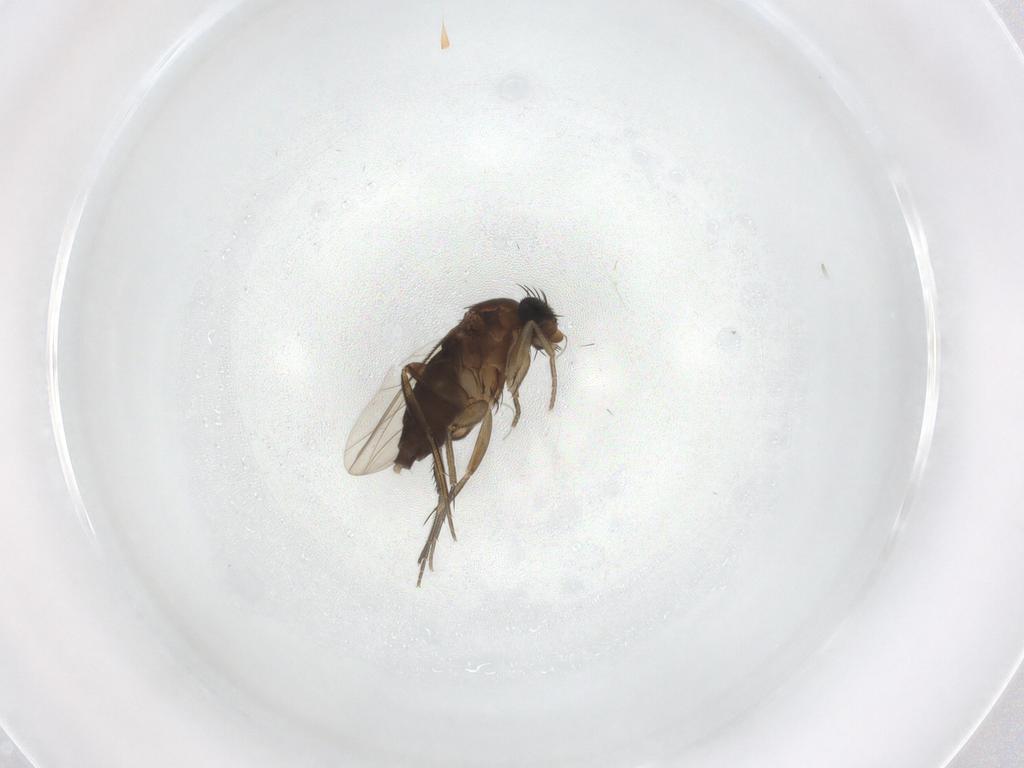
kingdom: Animalia
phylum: Arthropoda
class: Insecta
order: Diptera
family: Phoridae
